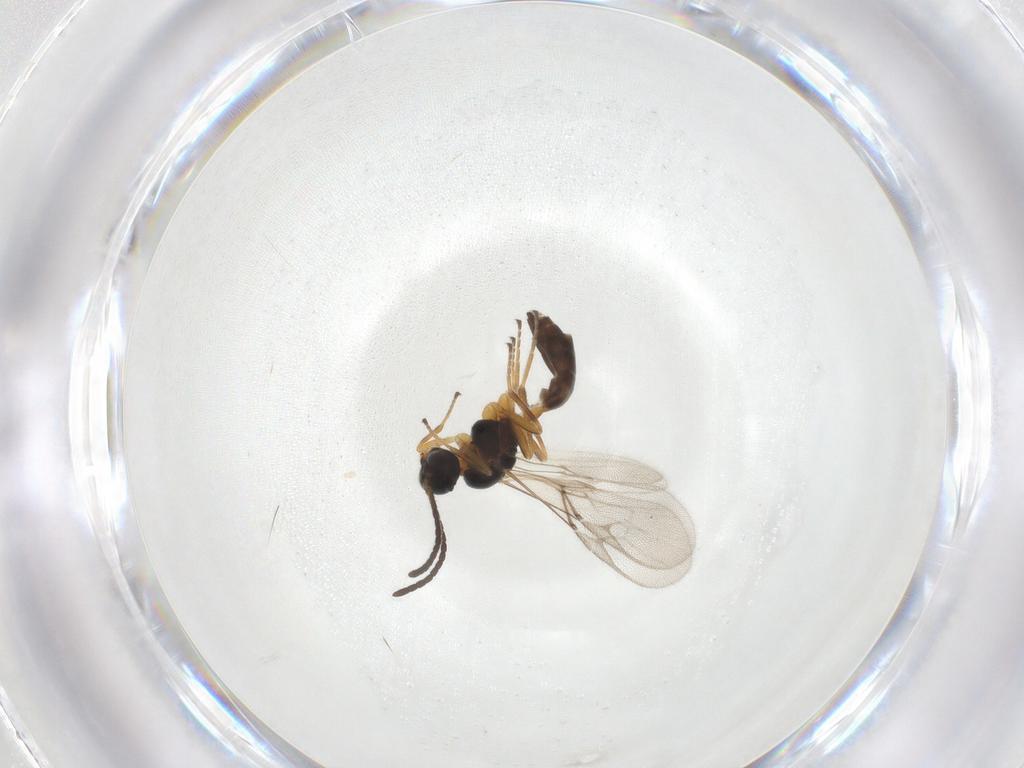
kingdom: Animalia
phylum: Arthropoda
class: Insecta
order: Hymenoptera
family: Braconidae
